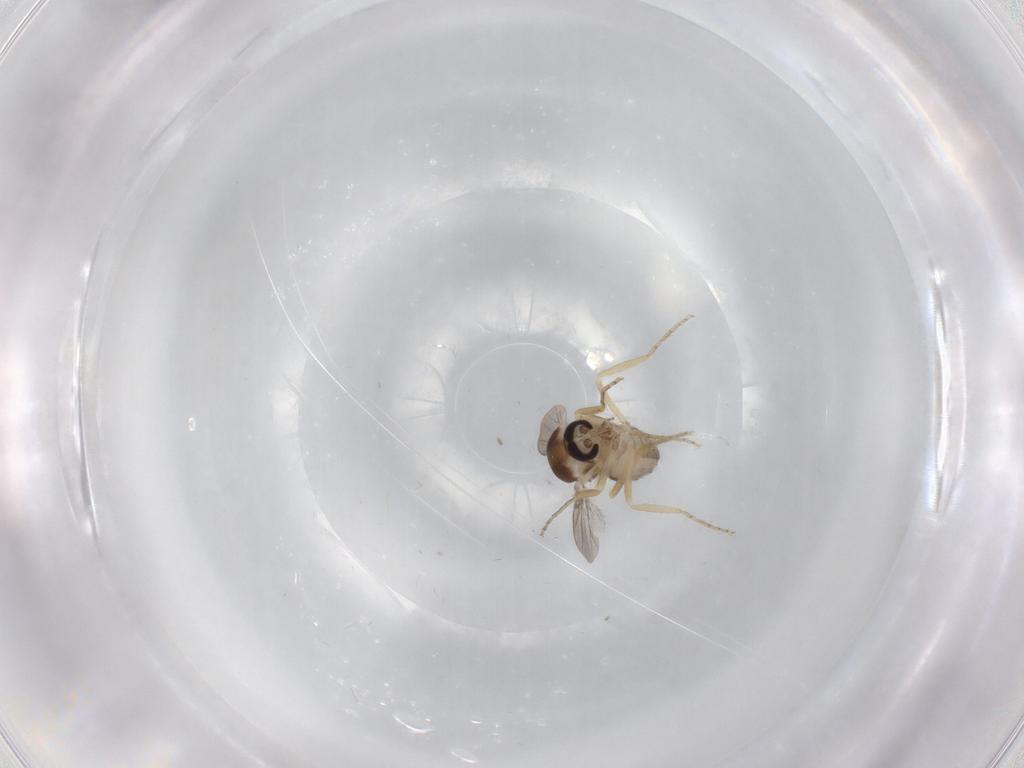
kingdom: Animalia
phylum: Arthropoda
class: Insecta
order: Diptera
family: Ceratopogonidae
